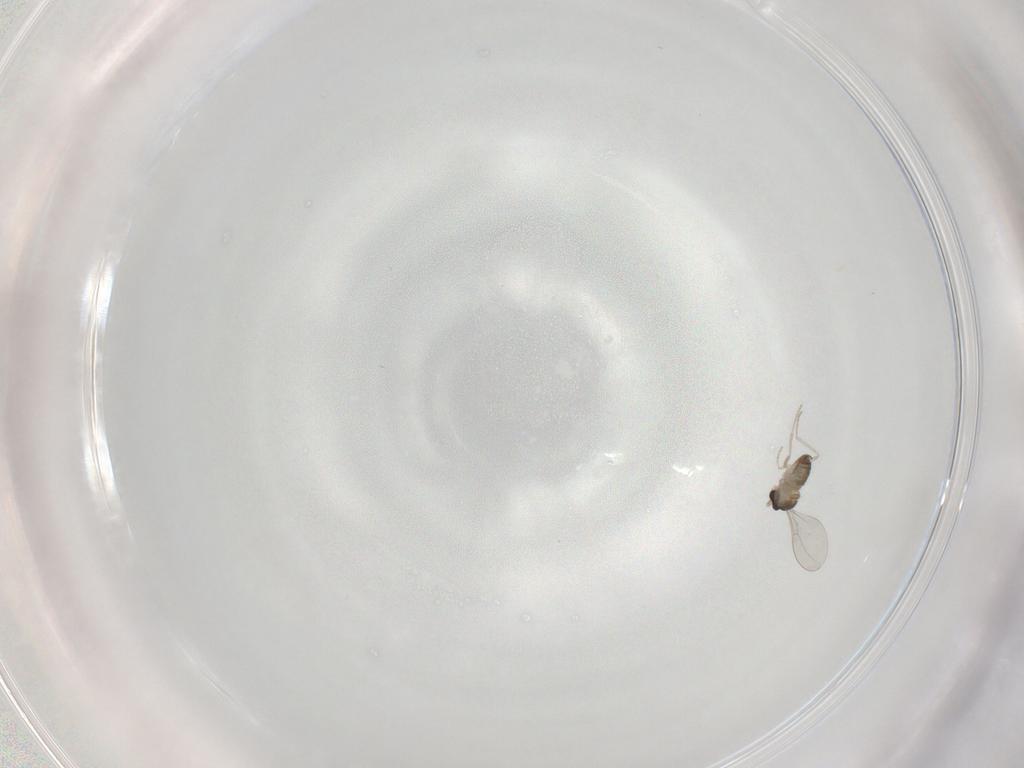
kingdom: Animalia
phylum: Arthropoda
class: Insecta
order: Diptera
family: Cecidomyiidae
